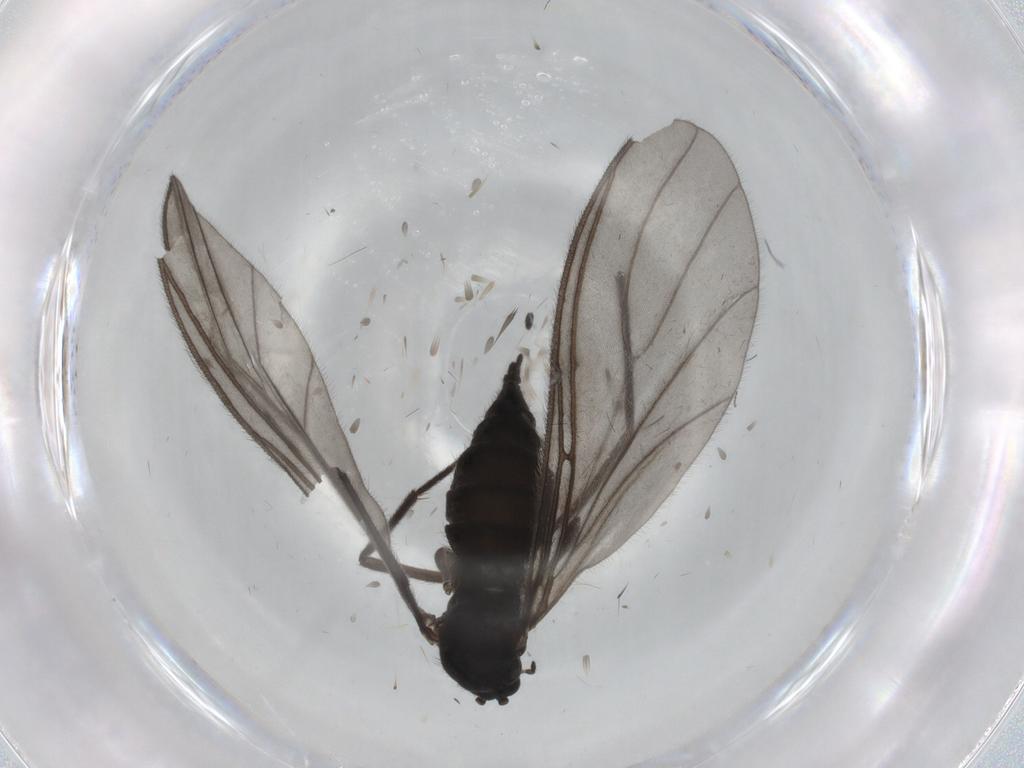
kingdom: Animalia
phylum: Arthropoda
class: Insecta
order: Diptera
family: Sciaridae
